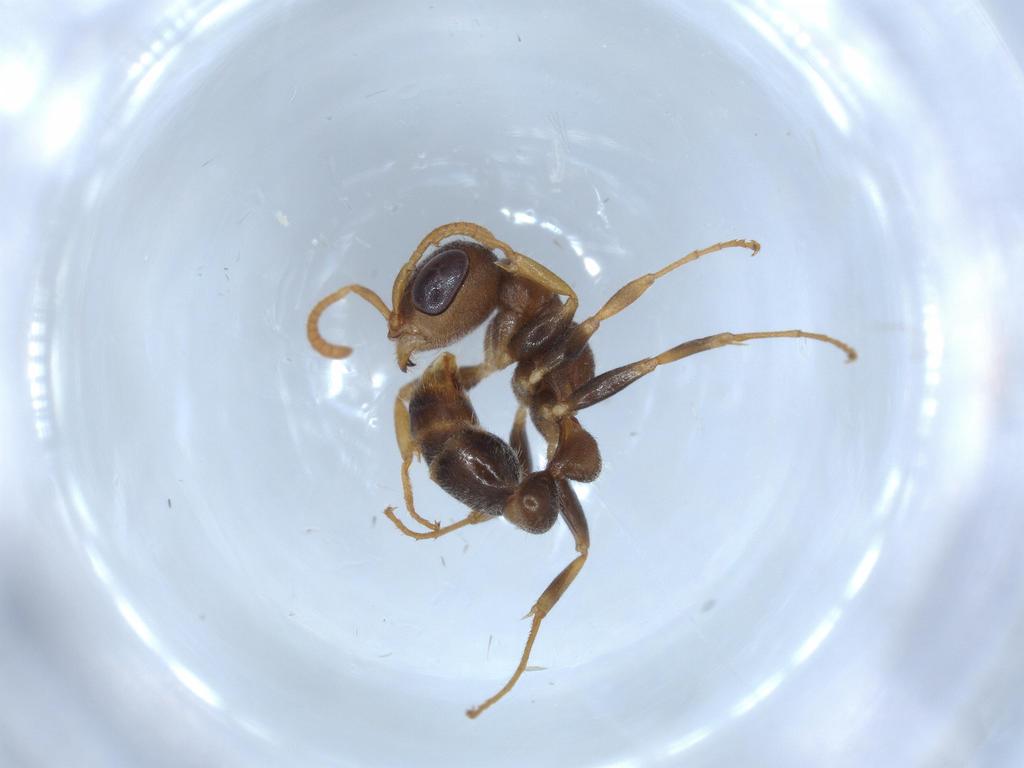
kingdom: Animalia
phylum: Arthropoda
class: Insecta
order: Hymenoptera
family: Formicidae
